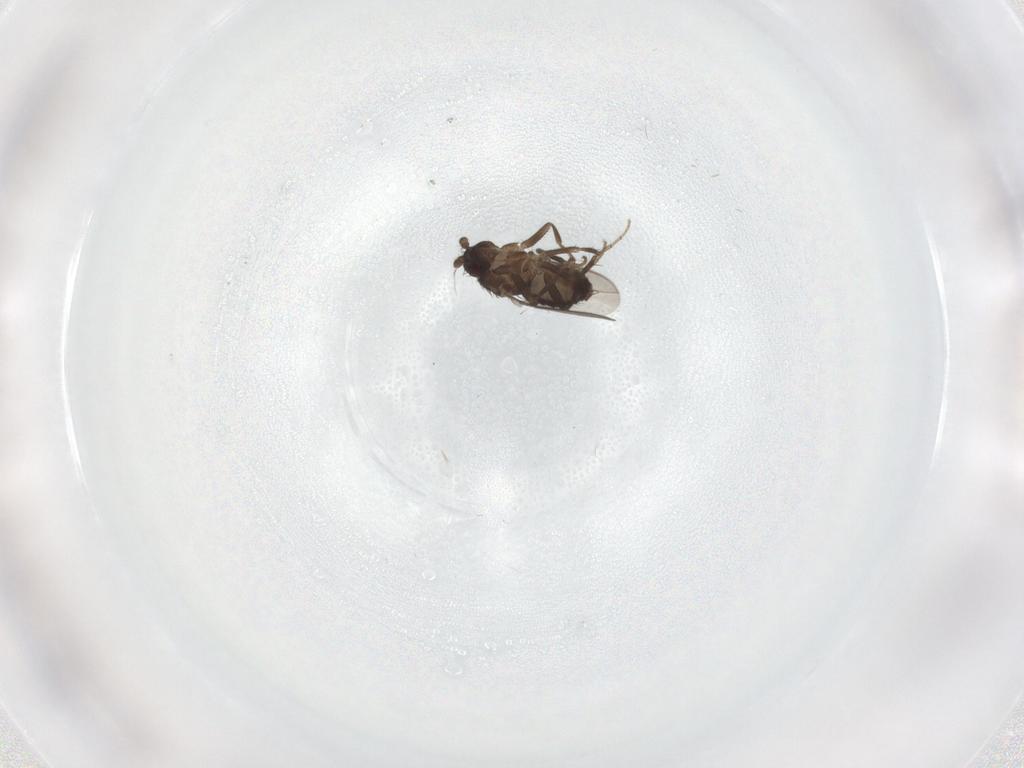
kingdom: Animalia
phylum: Arthropoda
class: Insecta
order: Diptera
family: Sphaeroceridae
